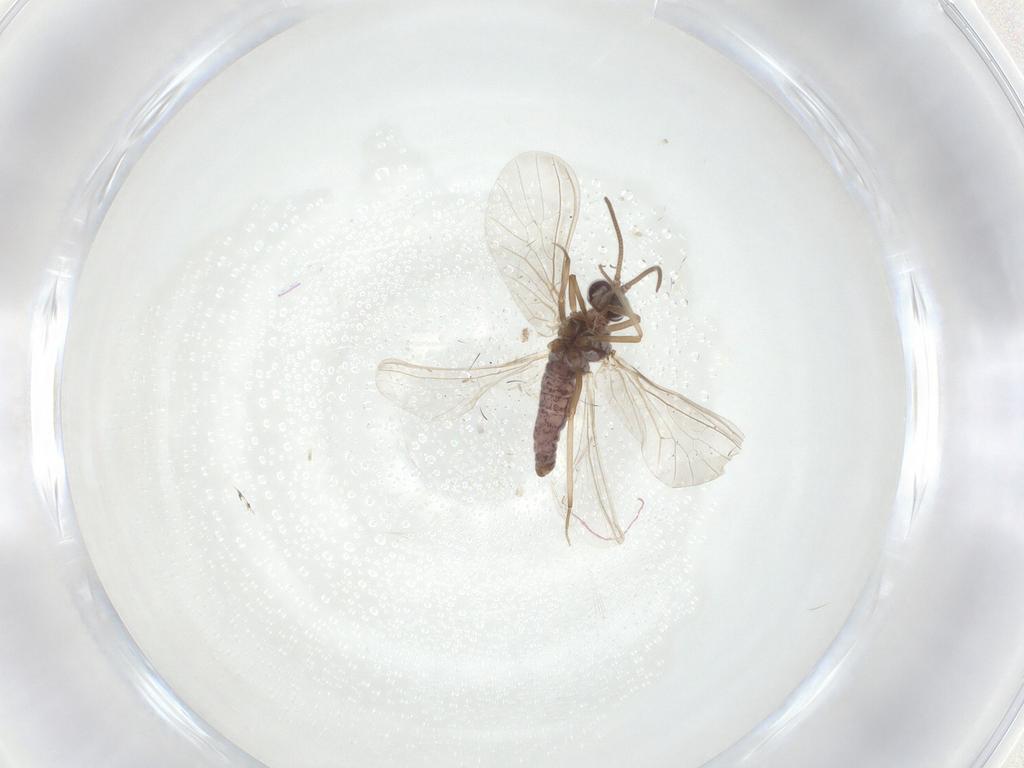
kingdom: Animalia
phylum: Arthropoda
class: Insecta
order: Neuroptera
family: Coniopterygidae
